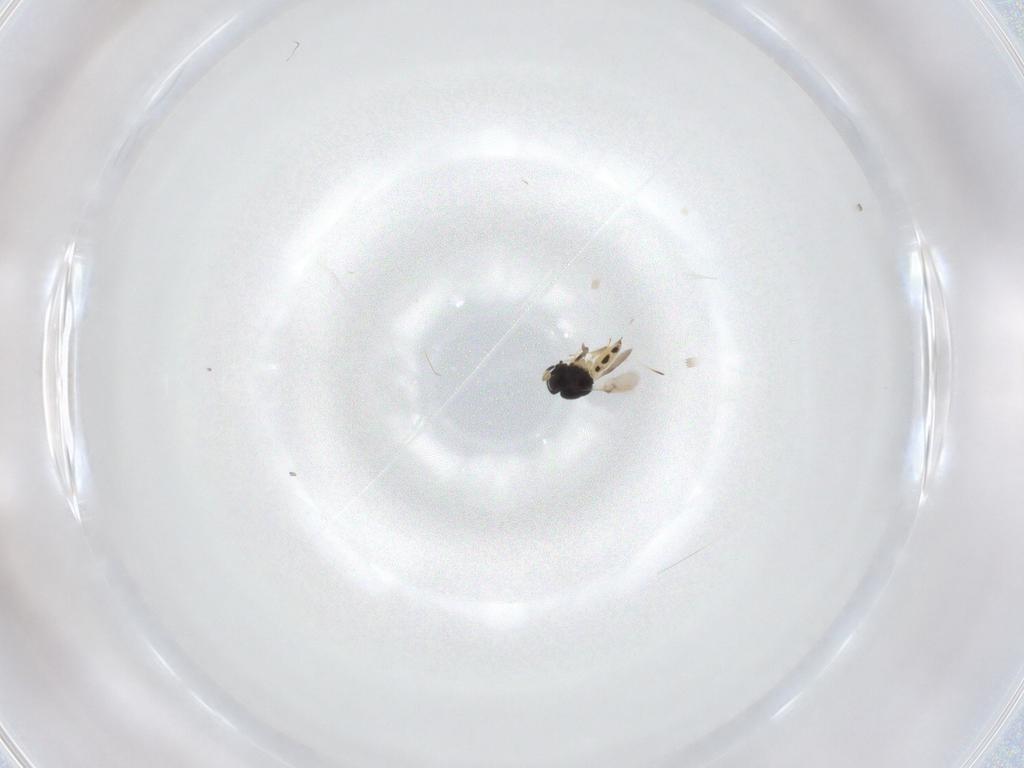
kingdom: Animalia
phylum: Arthropoda
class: Insecta
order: Hymenoptera
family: Scelionidae
